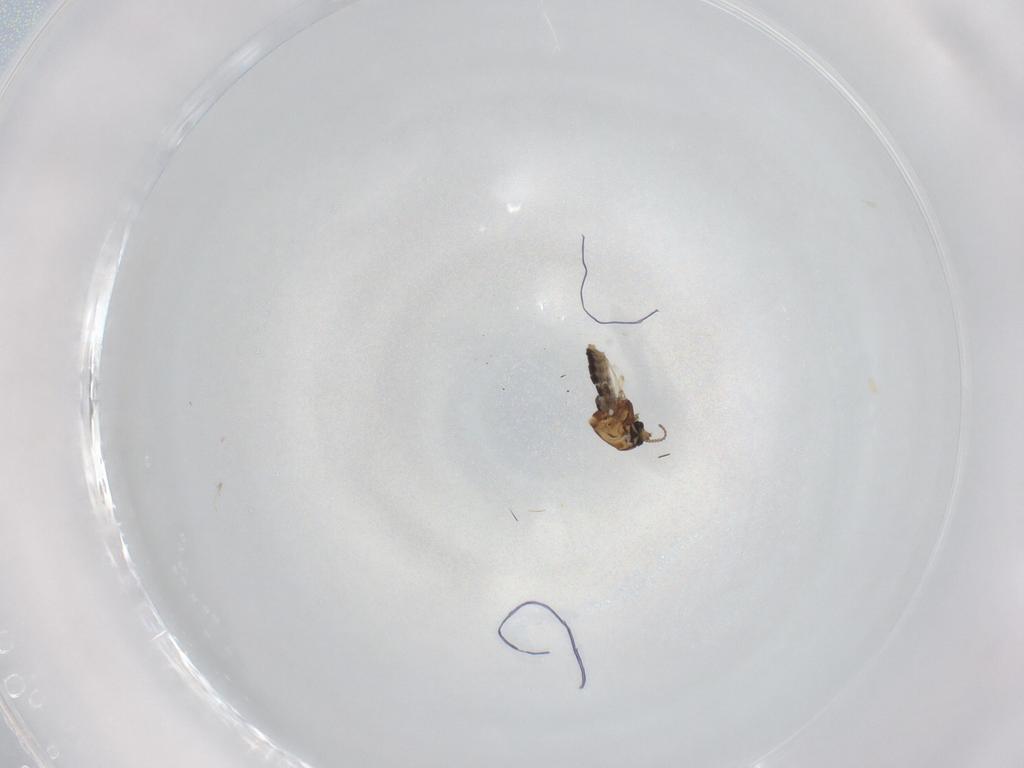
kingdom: Animalia
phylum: Arthropoda
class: Insecta
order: Diptera
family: Ceratopogonidae
